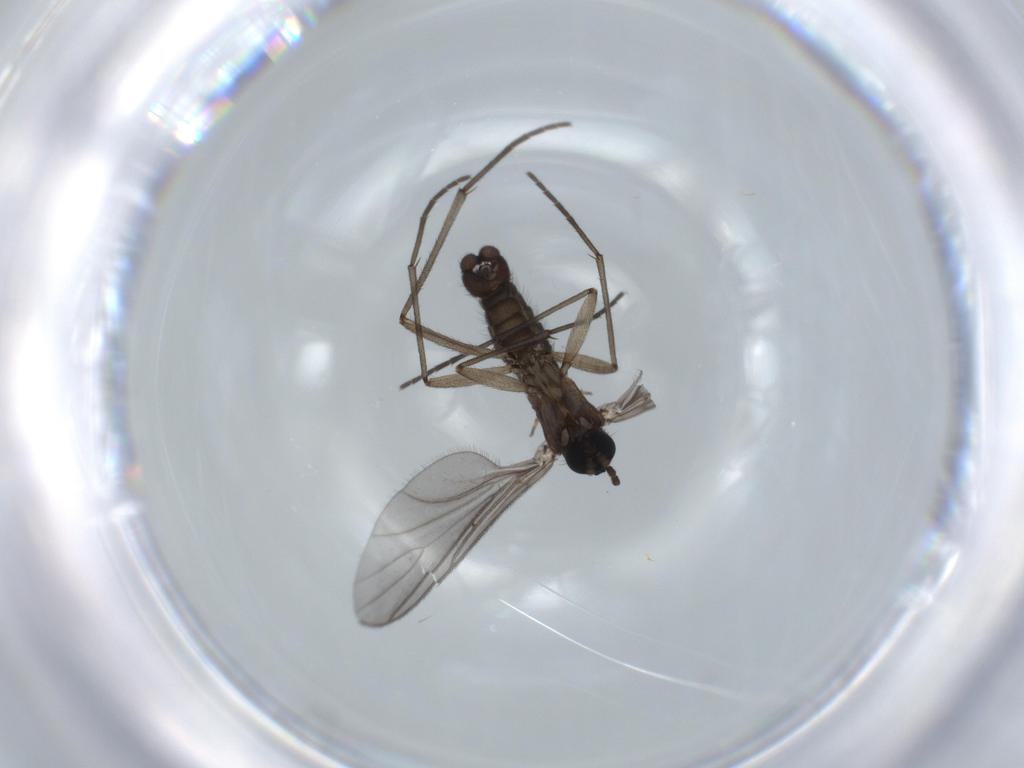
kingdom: Animalia
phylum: Arthropoda
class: Insecta
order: Diptera
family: Sciaridae
